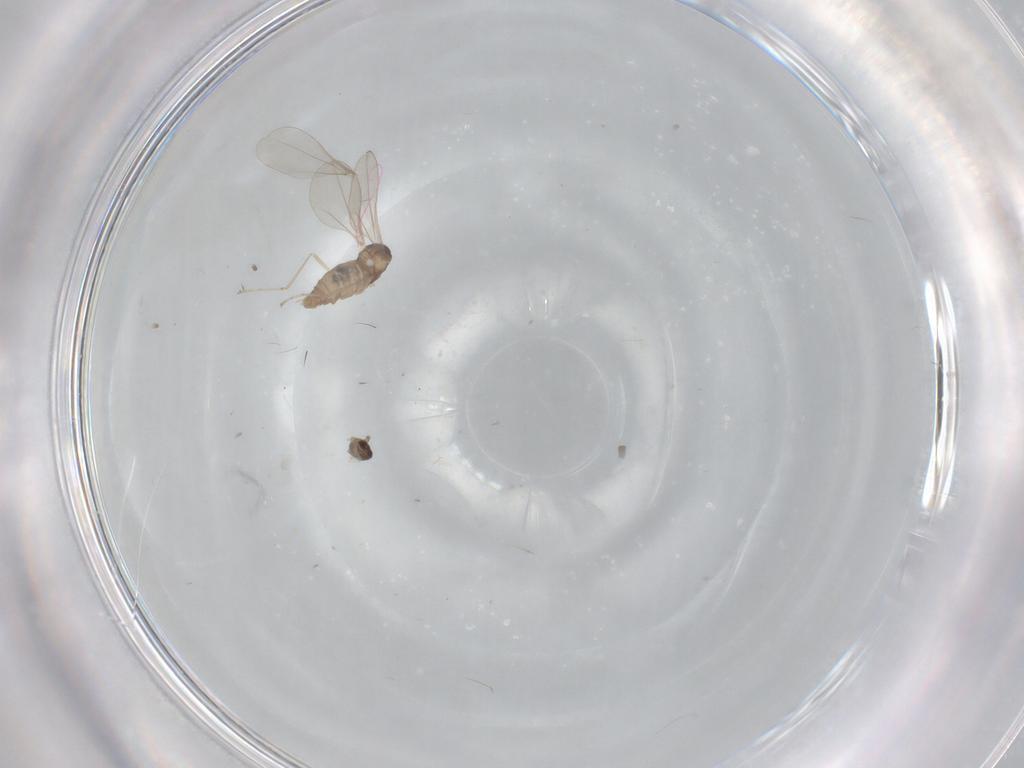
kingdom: Animalia
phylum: Arthropoda
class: Insecta
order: Diptera
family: Cecidomyiidae
